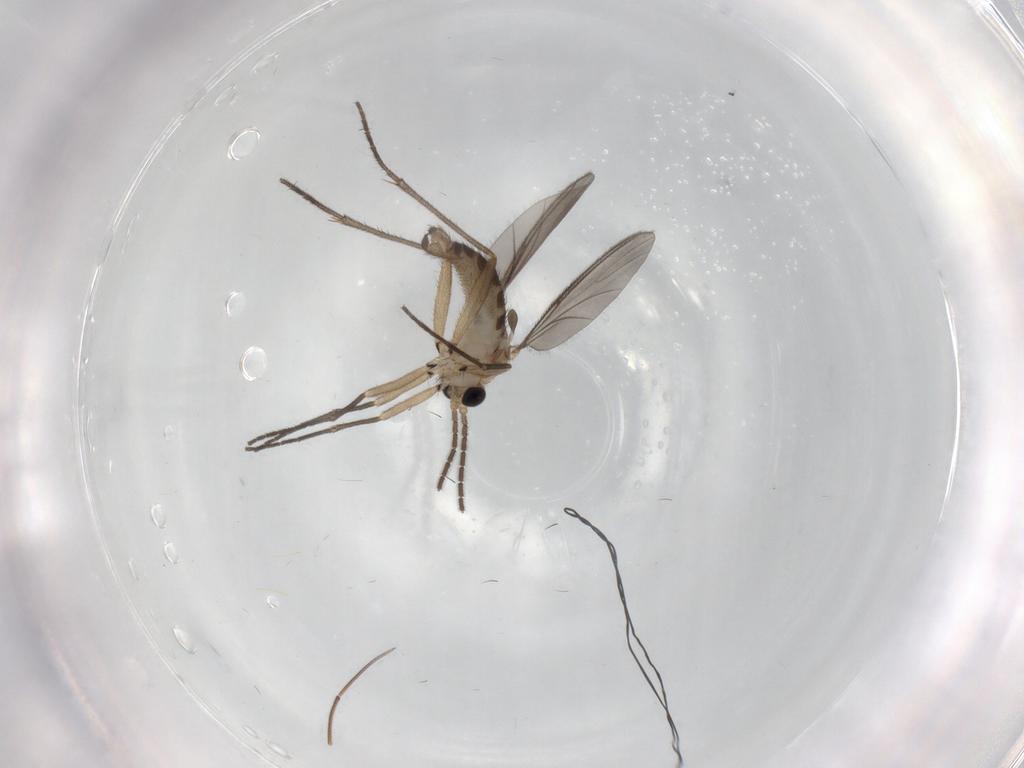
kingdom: Animalia
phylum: Arthropoda
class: Insecta
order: Diptera
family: Sciaridae
